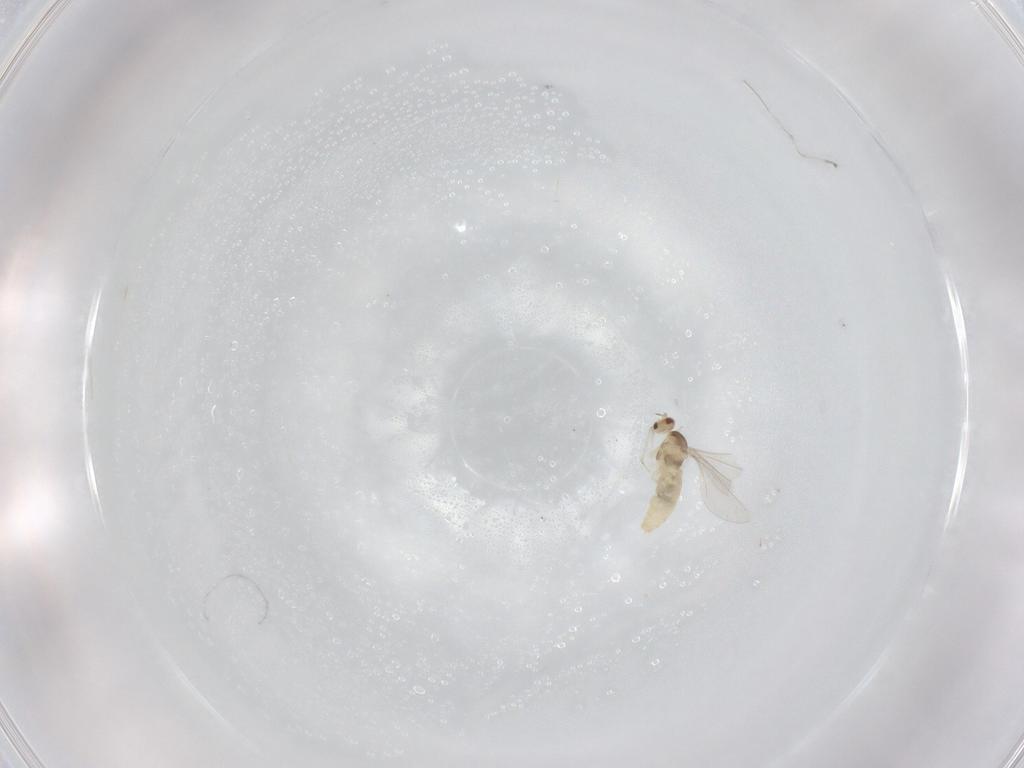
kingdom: Animalia
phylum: Arthropoda
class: Insecta
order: Diptera
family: Cecidomyiidae
